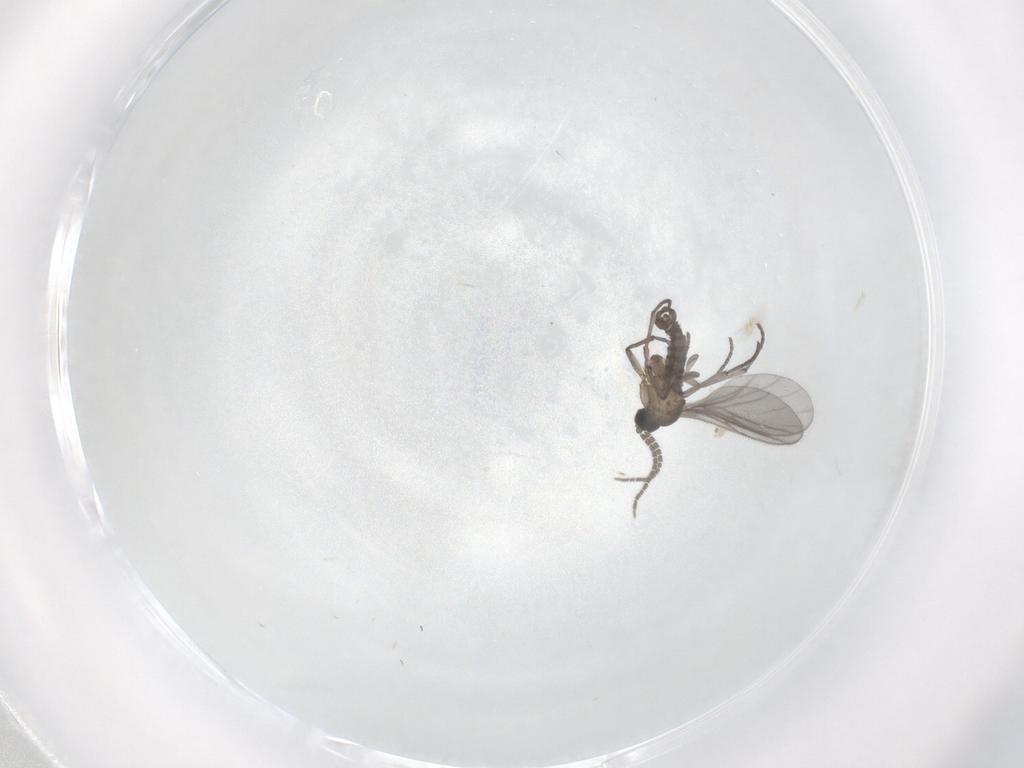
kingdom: Animalia
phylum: Arthropoda
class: Insecta
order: Diptera
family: Sciaridae
